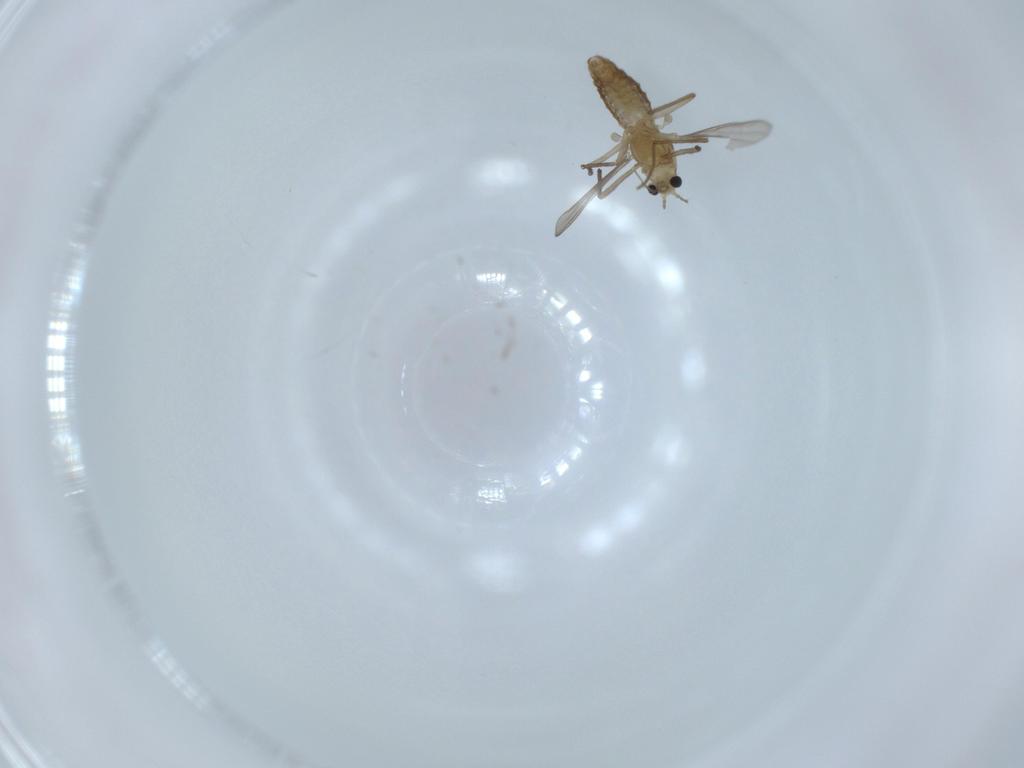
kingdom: Animalia
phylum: Arthropoda
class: Insecta
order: Diptera
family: Chironomidae
